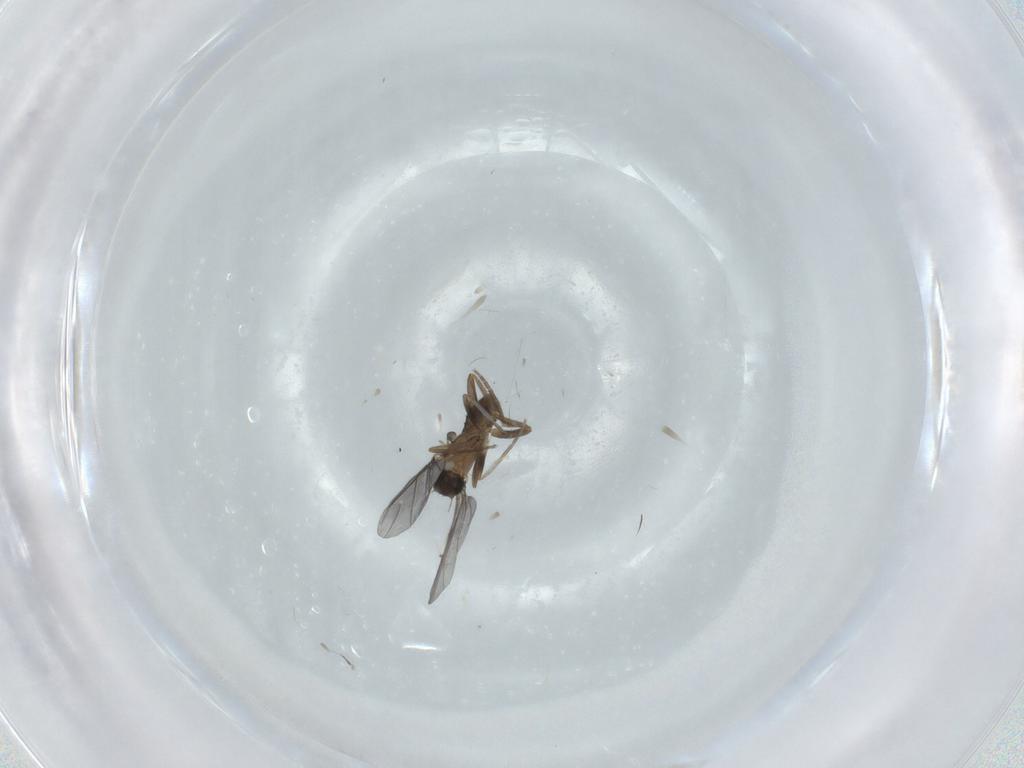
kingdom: Animalia
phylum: Arthropoda
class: Insecta
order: Diptera
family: Phoridae
